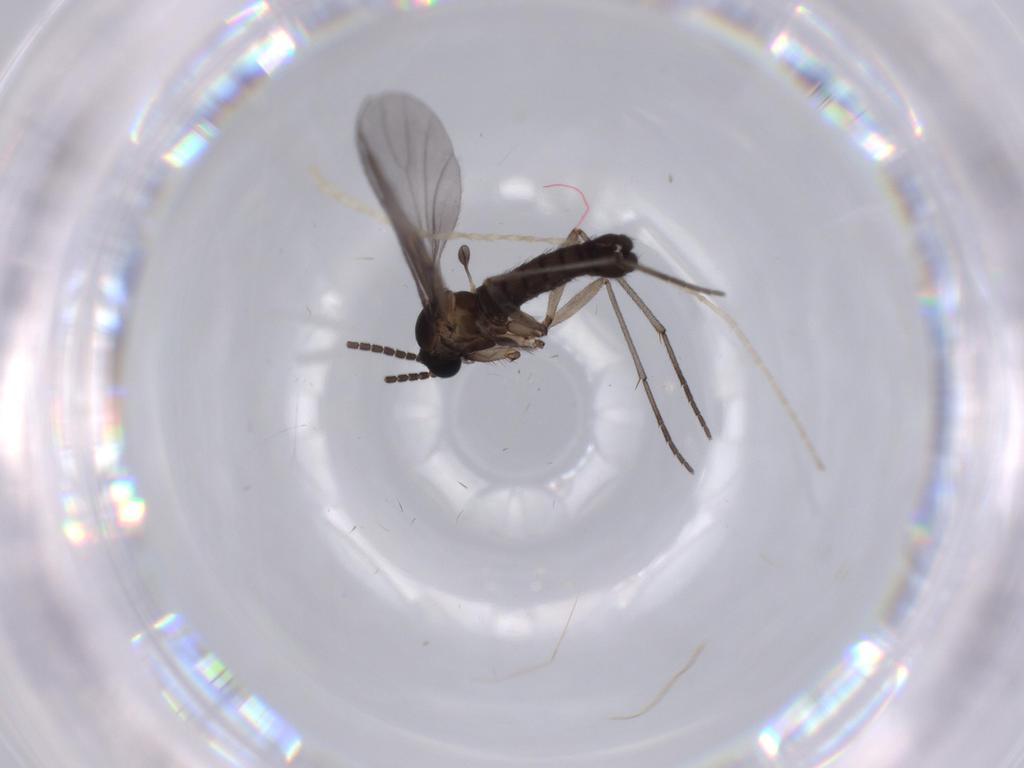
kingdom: Animalia
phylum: Arthropoda
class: Insecta
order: Diptera
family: Sciaridae
